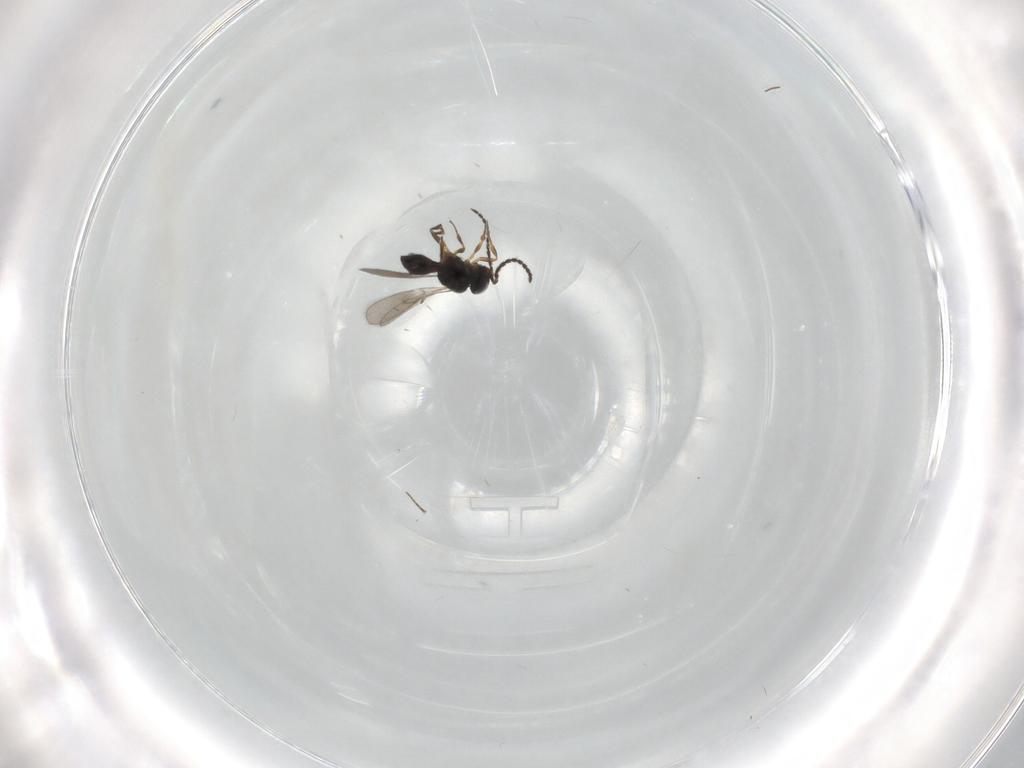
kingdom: Animalia
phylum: Arthropoda
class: Insecta
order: Hymenoptera
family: Scelionidae
